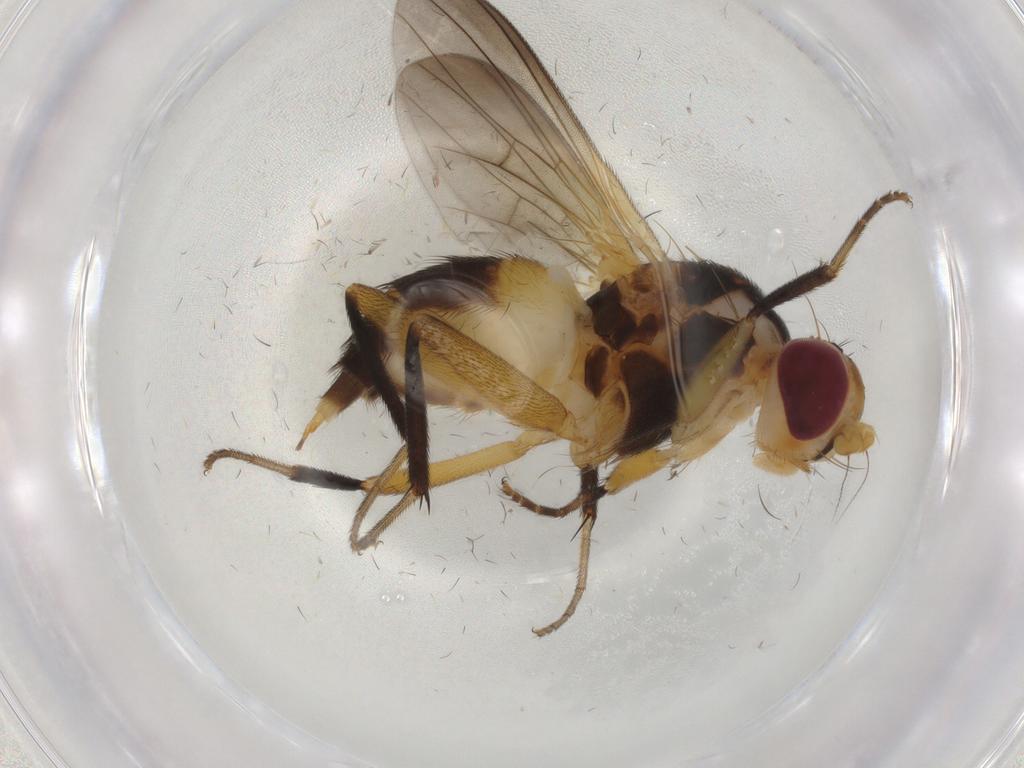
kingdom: Animalia
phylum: Arthropoda
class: Insecta
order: Diptera
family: Heleomyzidae
